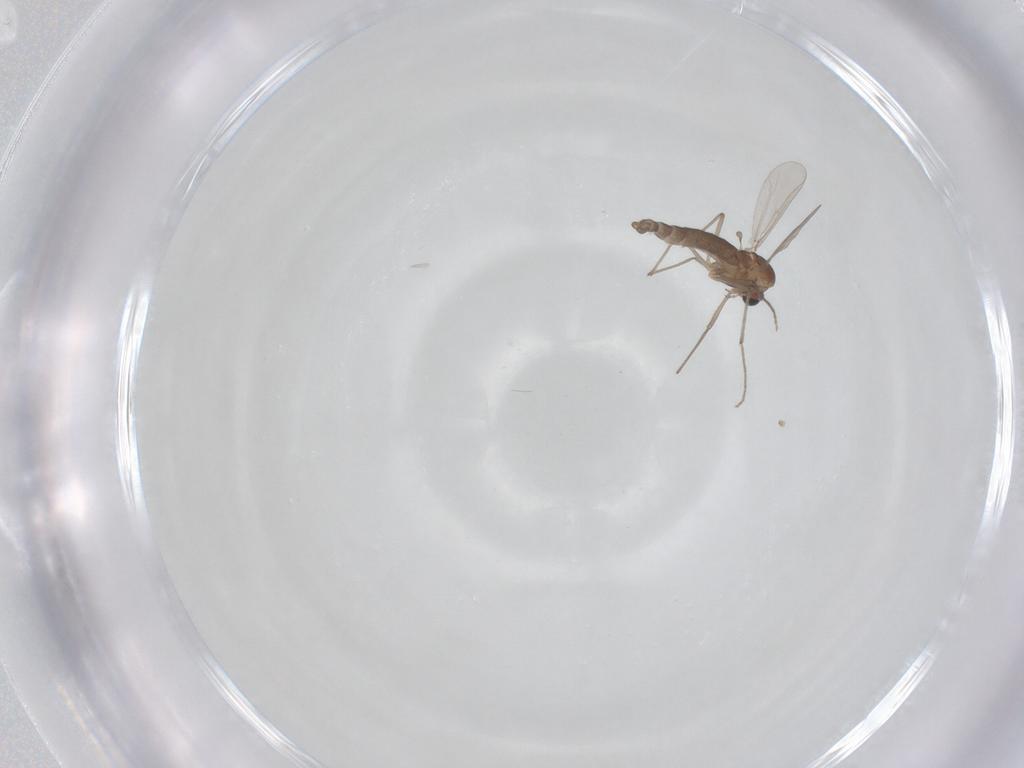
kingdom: Animalia
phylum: Arthropoda
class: Insecta
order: Diptera
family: Chironomidae
